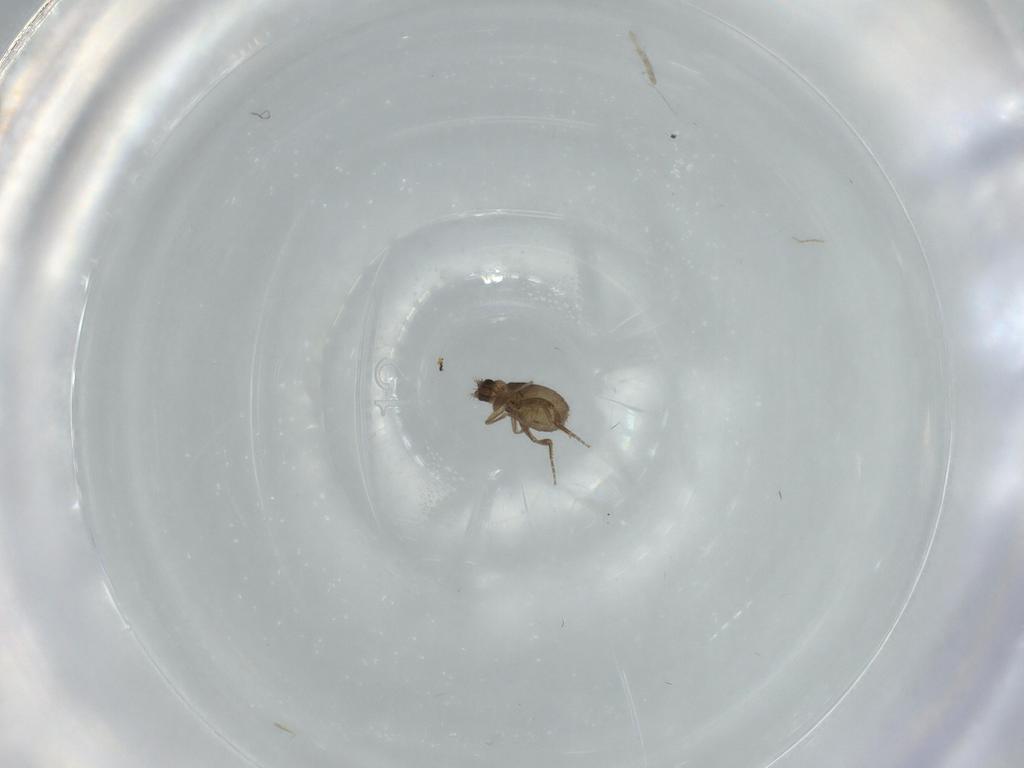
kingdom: Animalia
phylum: Arthropoda
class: Insecta
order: Diptera
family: Phoridae
